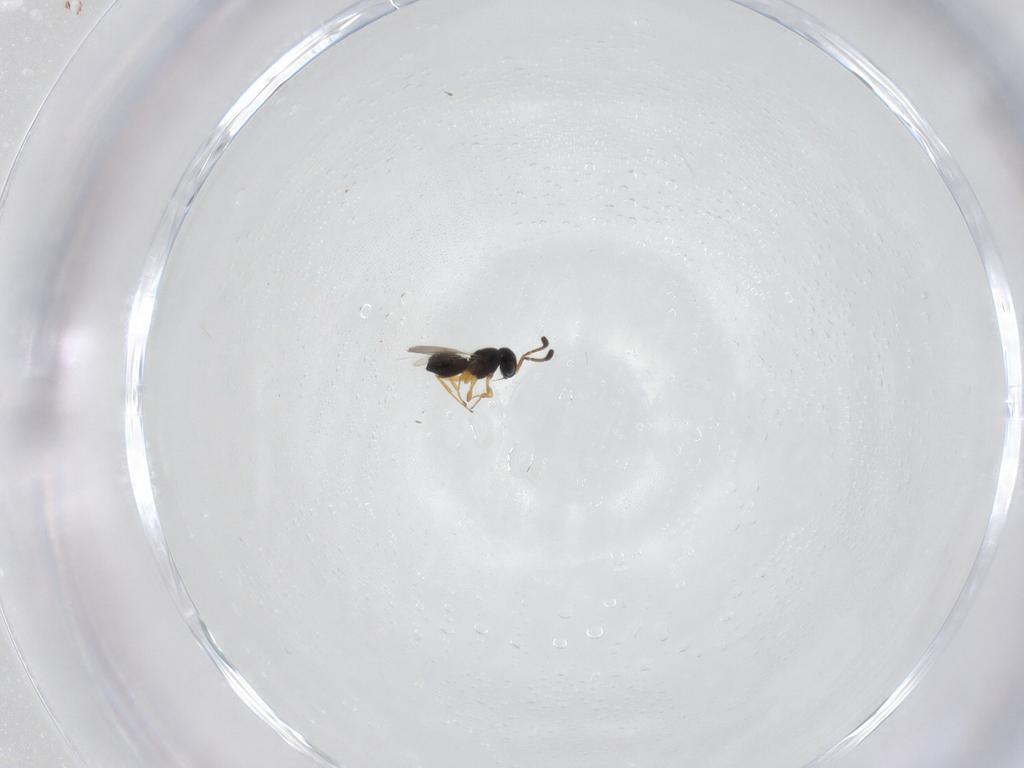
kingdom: Animalia
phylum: Arthropoda
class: Insecta
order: Hymenoptera
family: Scelionidae
